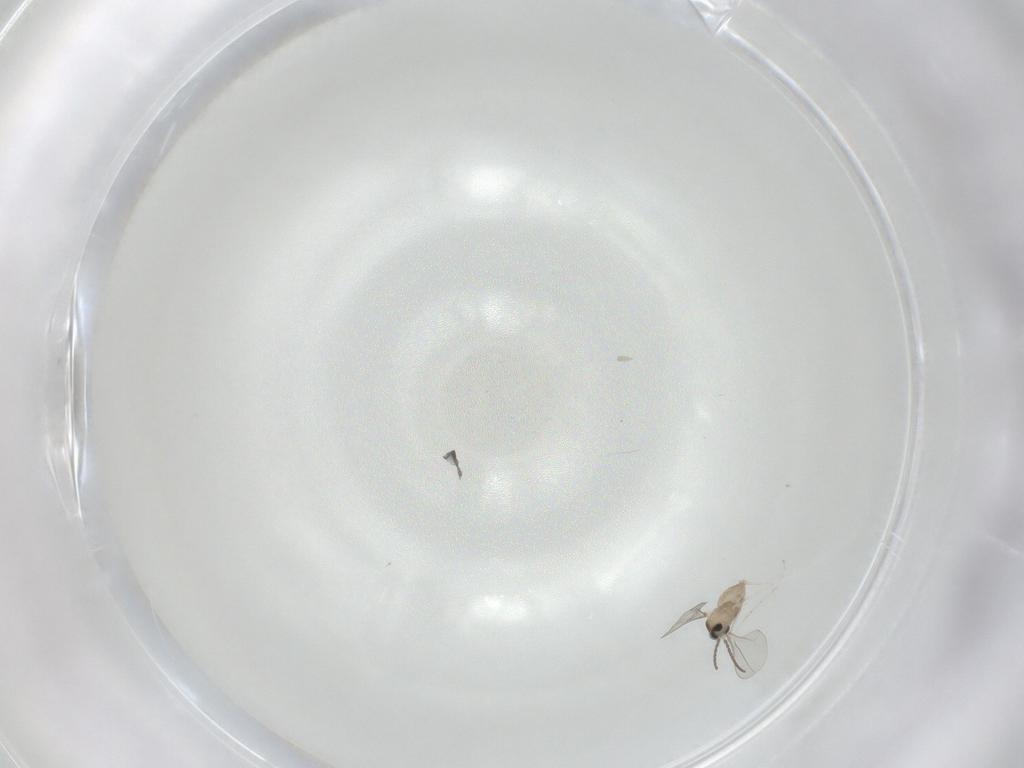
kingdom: Animalia
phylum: Arthropoda
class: Insecta
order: Diptera
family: Cecidomyiidae
